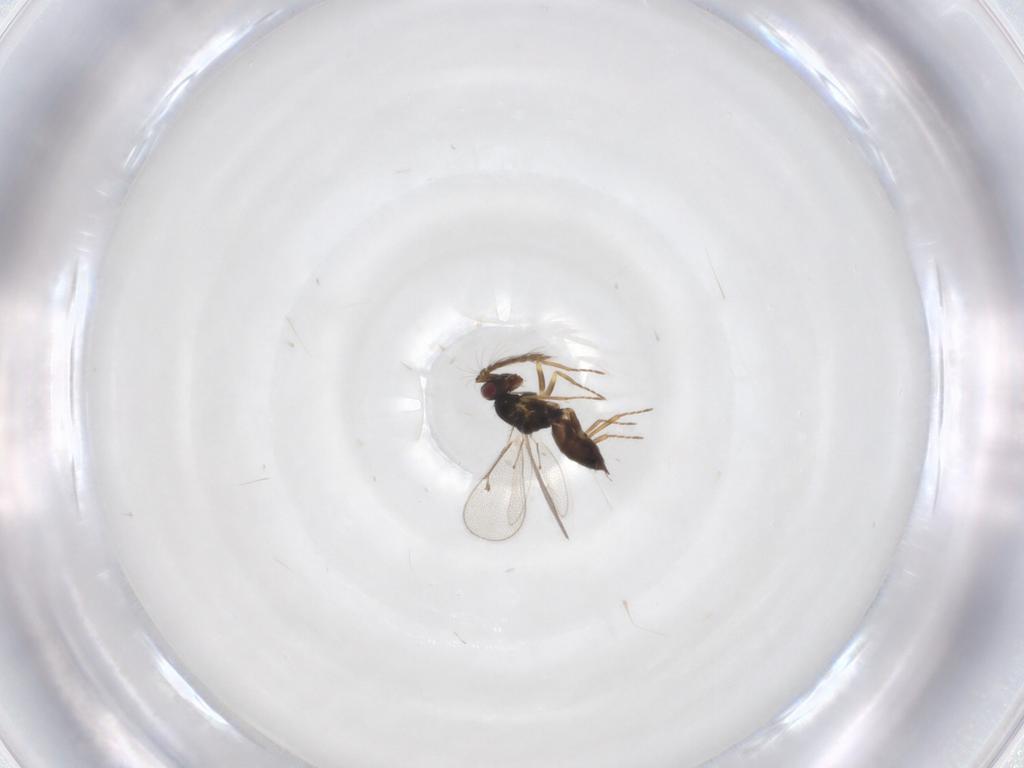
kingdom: Animalia
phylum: Arthropoda
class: Insecta
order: Hymenoptera
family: Eulophidae
